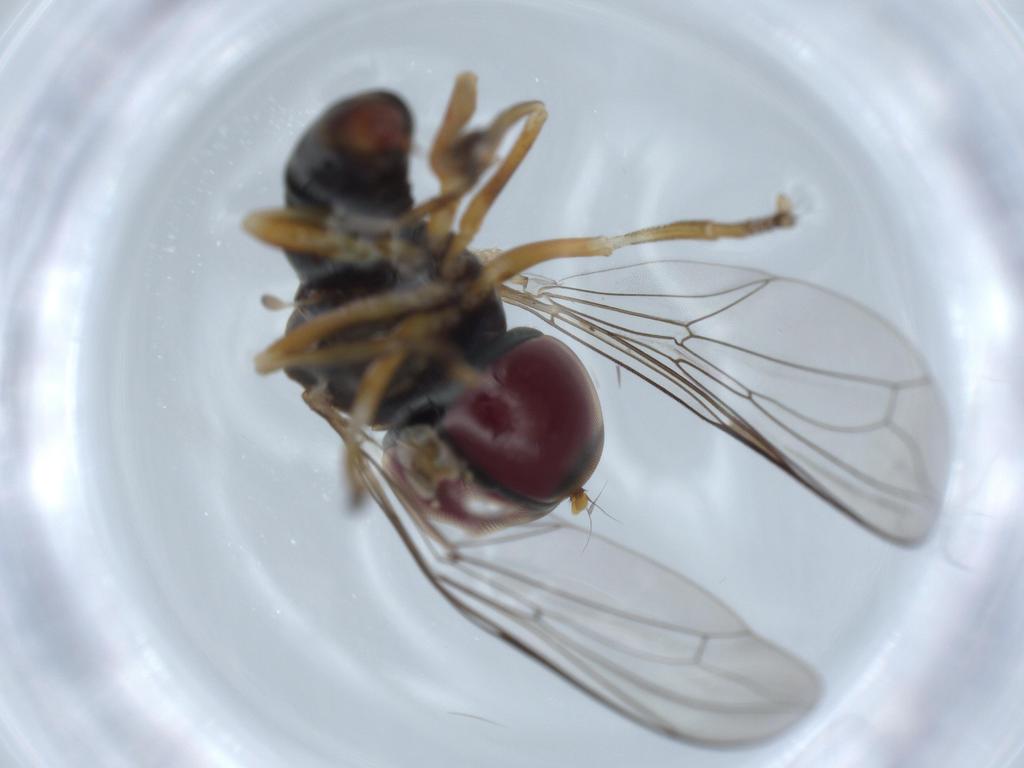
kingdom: Animalia
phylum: Arthropoda
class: Insecta
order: Diptera
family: Pipunculidae
